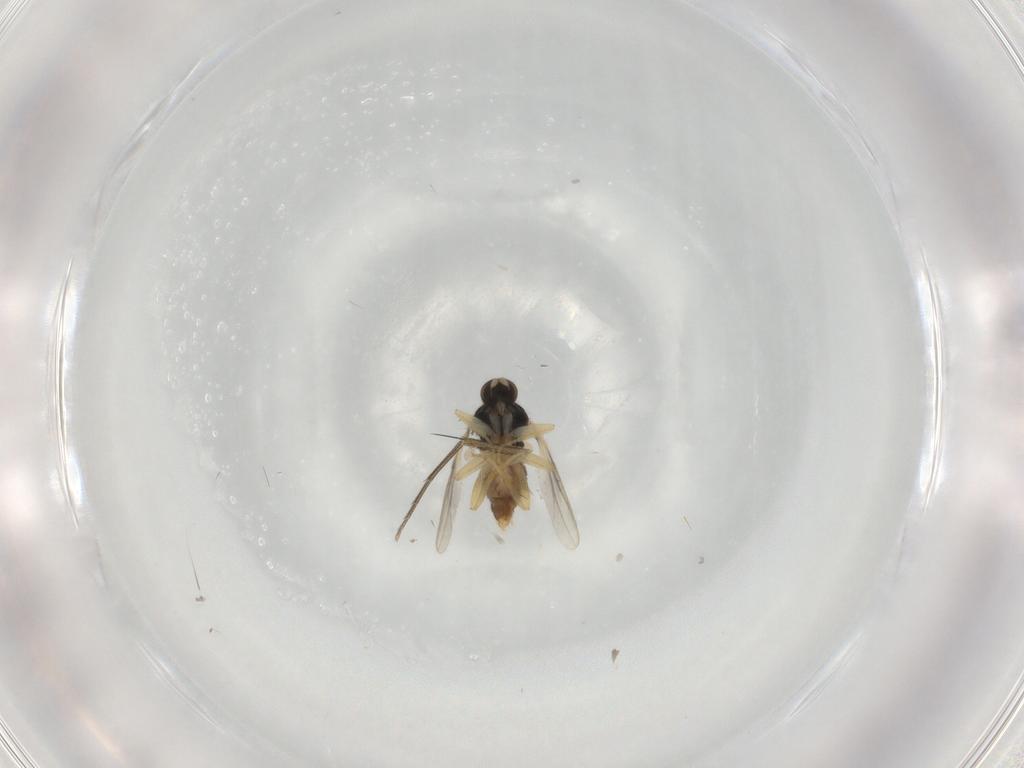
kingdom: Animalia
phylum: Arthropoda
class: Insecta
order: Diptera
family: Hybotidae
